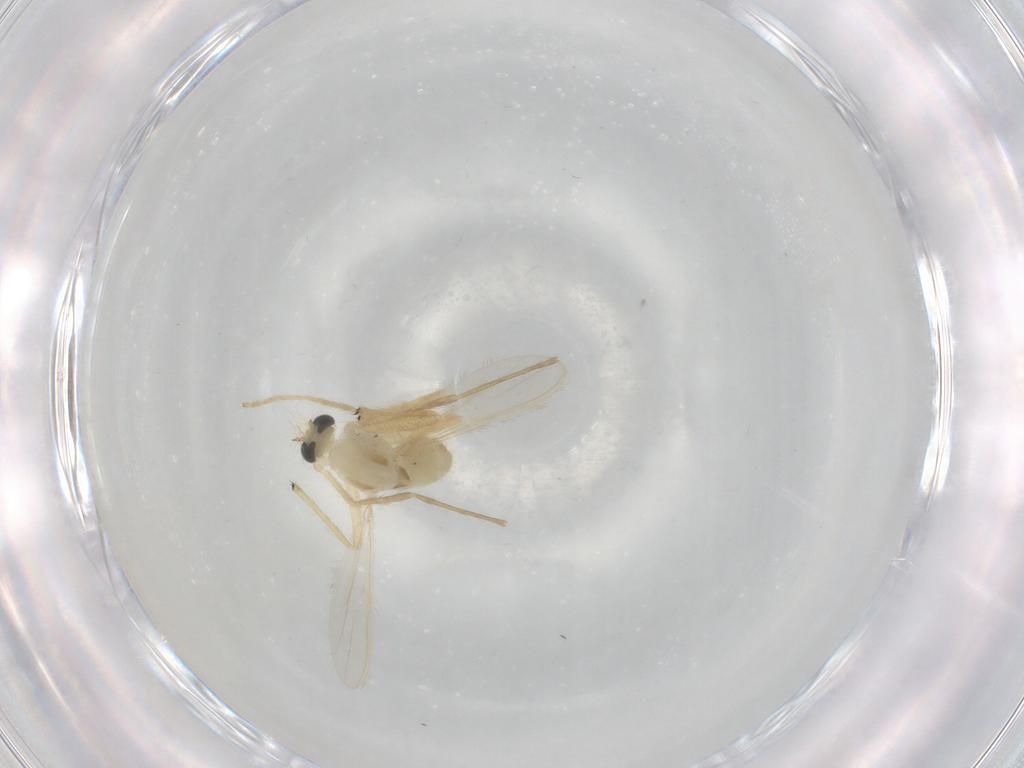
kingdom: Animalia
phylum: Arthropoda
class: Insecta
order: Diptera
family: Chironomidae
